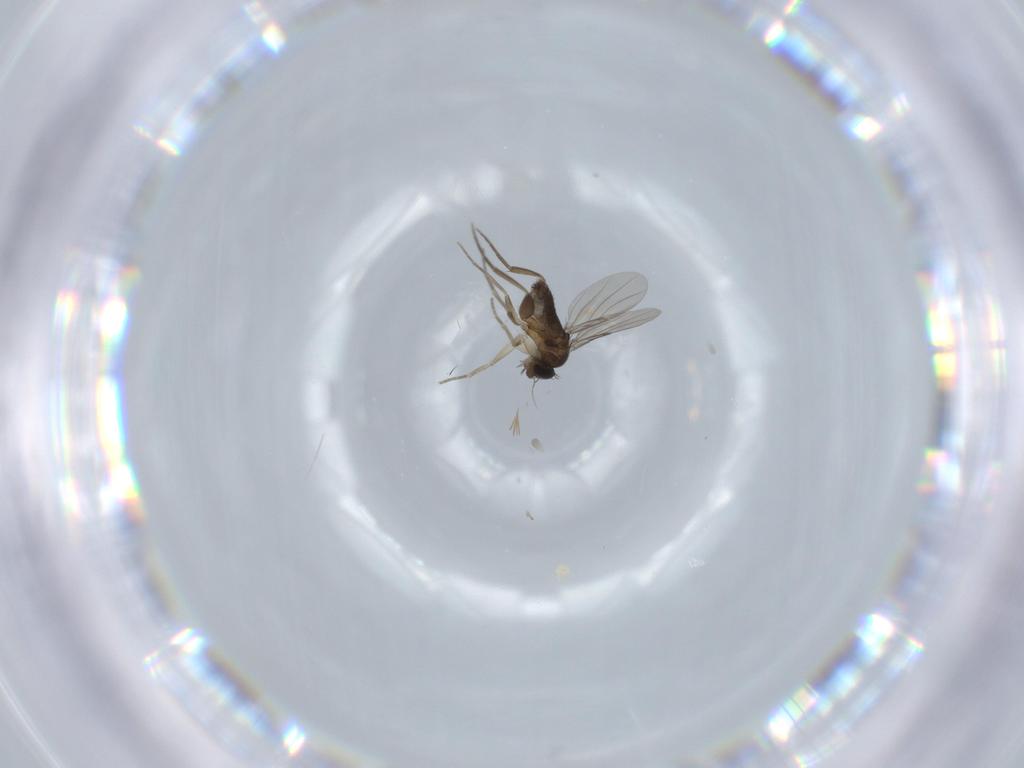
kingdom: Animalia
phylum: Arthropoda
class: Insecta
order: Diptera
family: Phoridae
